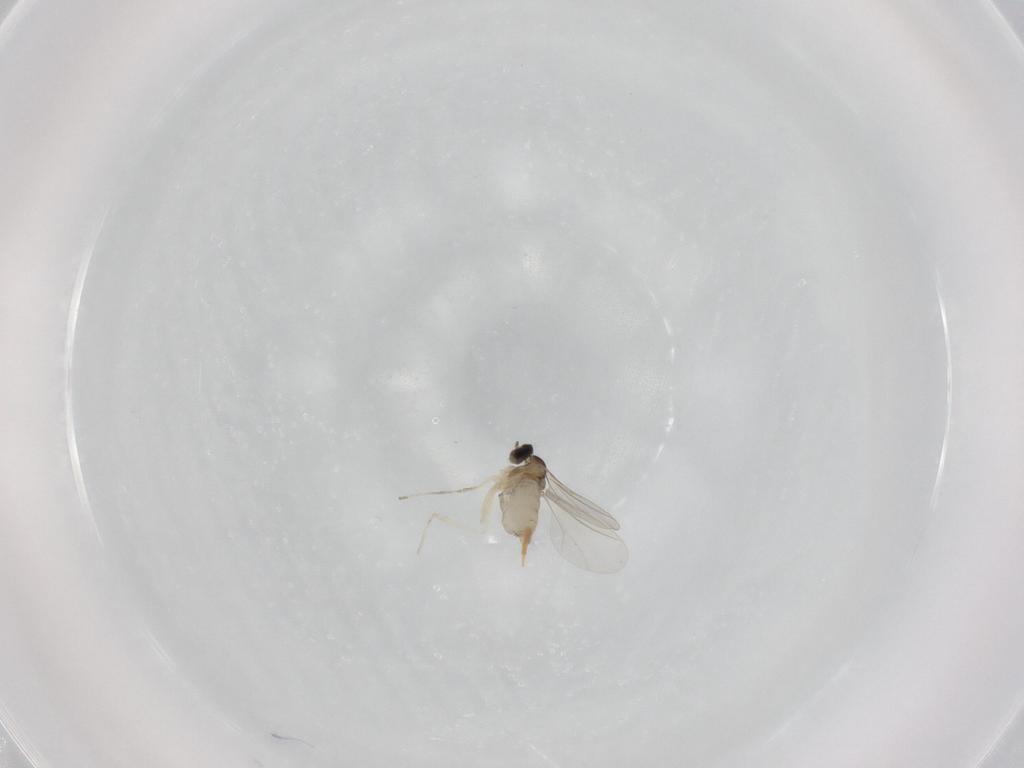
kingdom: Animalia
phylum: Arthropoda
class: Insecta
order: Diptera
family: Cecidomyiidae
